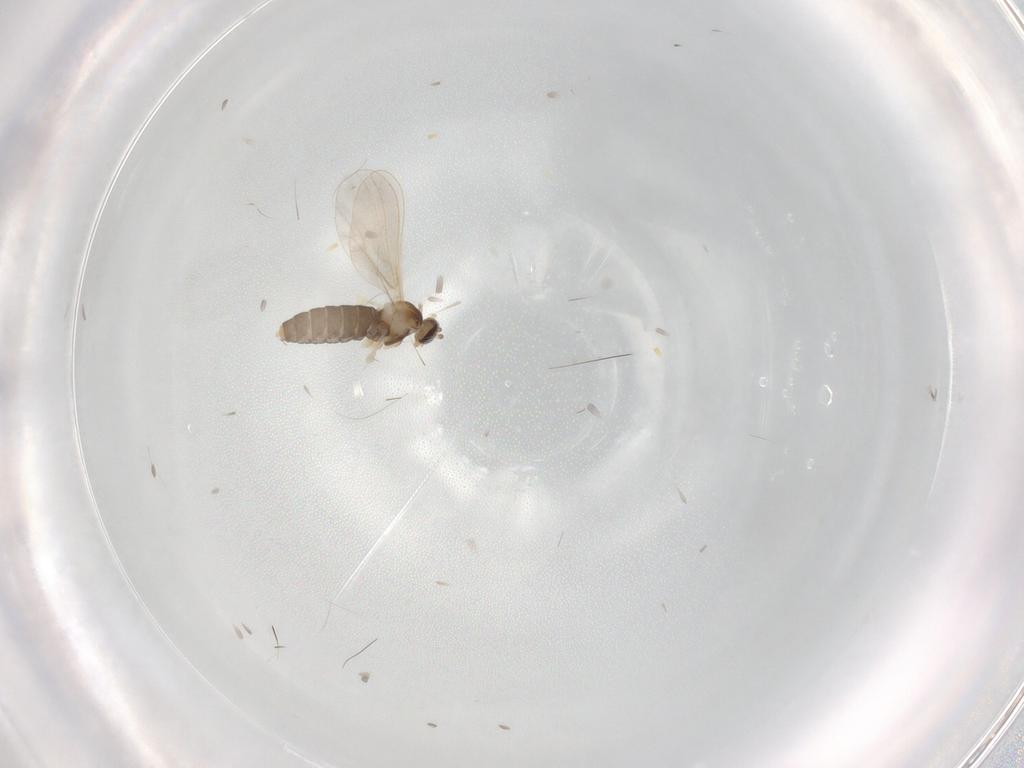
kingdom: Animalia
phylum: Arthropoda
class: Insecta
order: Diptera
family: Cecidomyiidae
